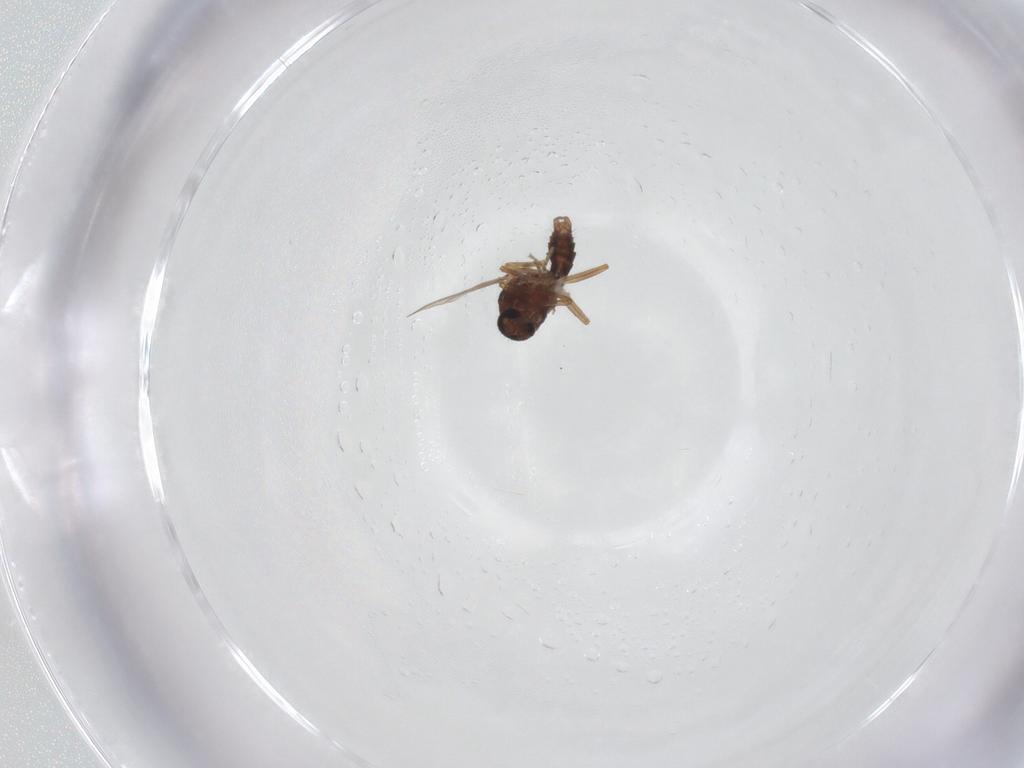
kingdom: Animalia
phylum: Arthropoda
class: Insecta
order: Diptera
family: Ceratopogonidae
